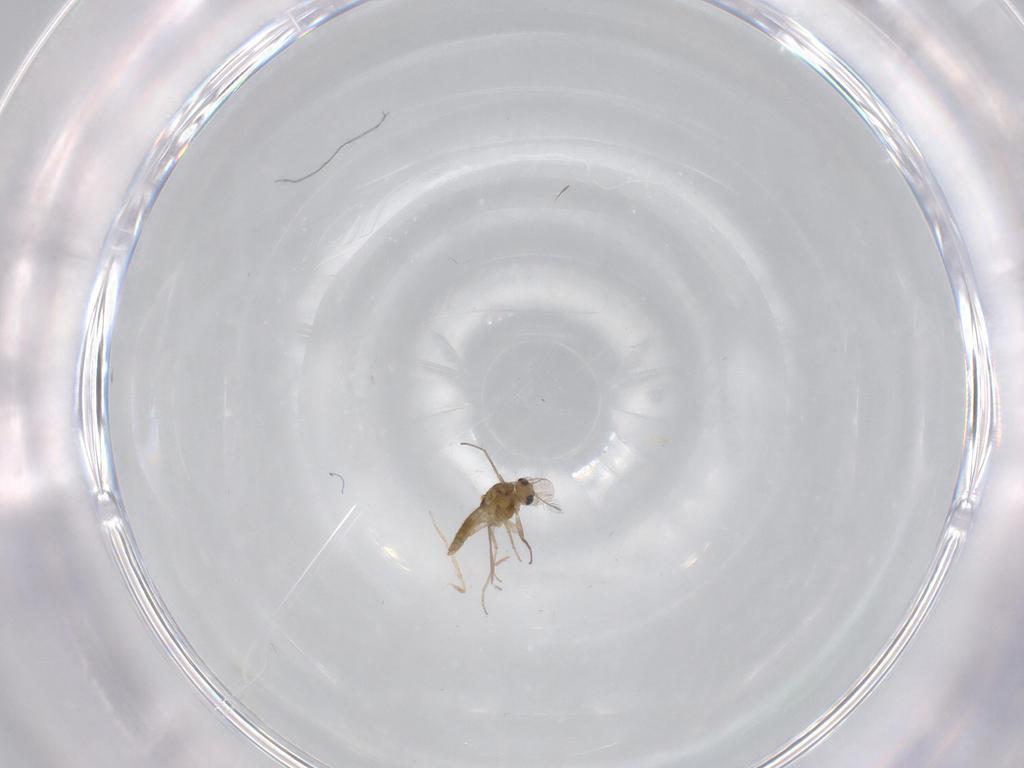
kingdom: Animalia
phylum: Arthropoda
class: Insecta
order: Diptera
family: Chironomidae
